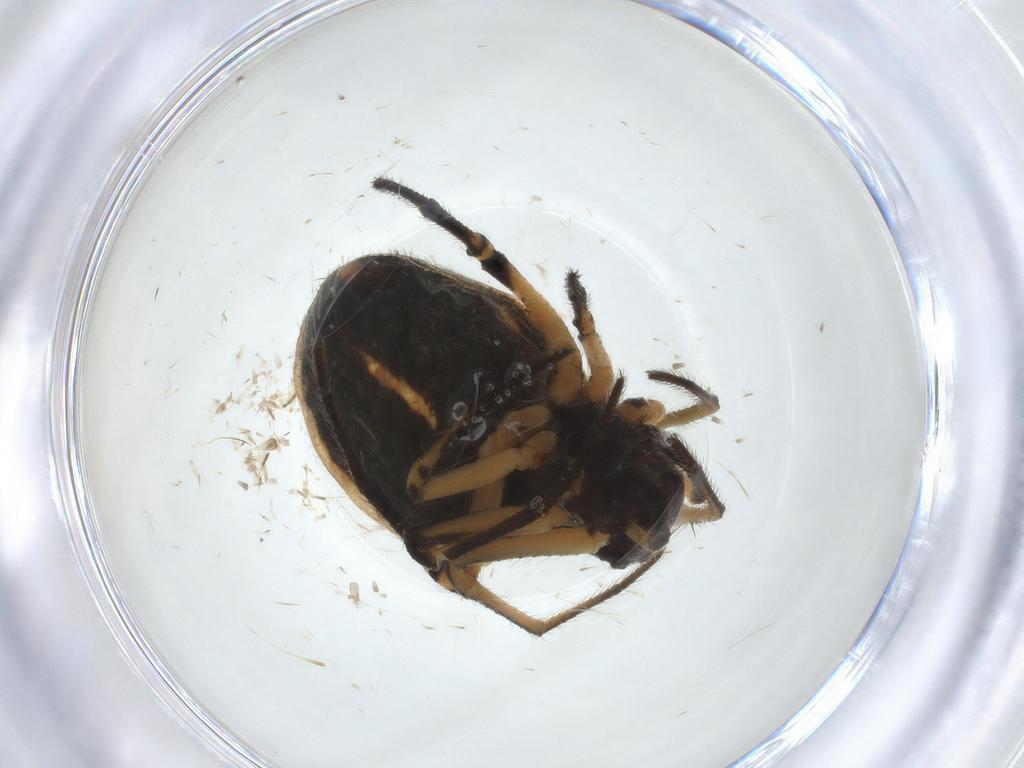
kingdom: Animalia
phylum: Arthropoda
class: Arachnida
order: Araneae
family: Araneidae
